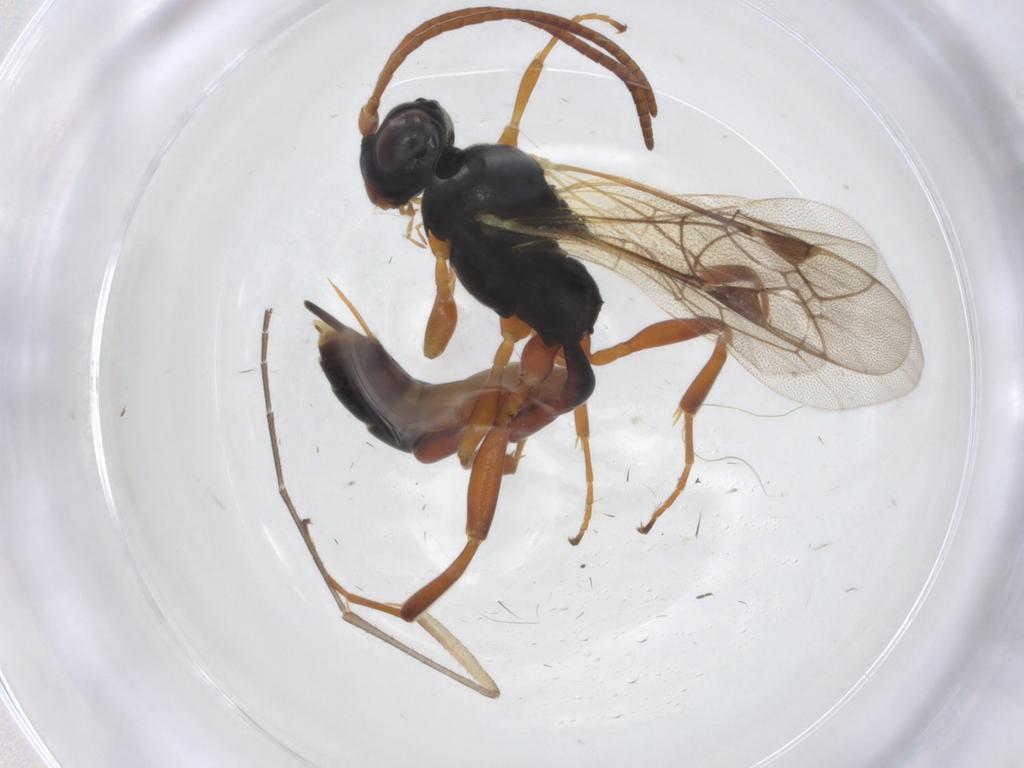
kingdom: Animalia
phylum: Arthropoda
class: Insecta
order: Hymenoptera
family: Ichneumonidae
